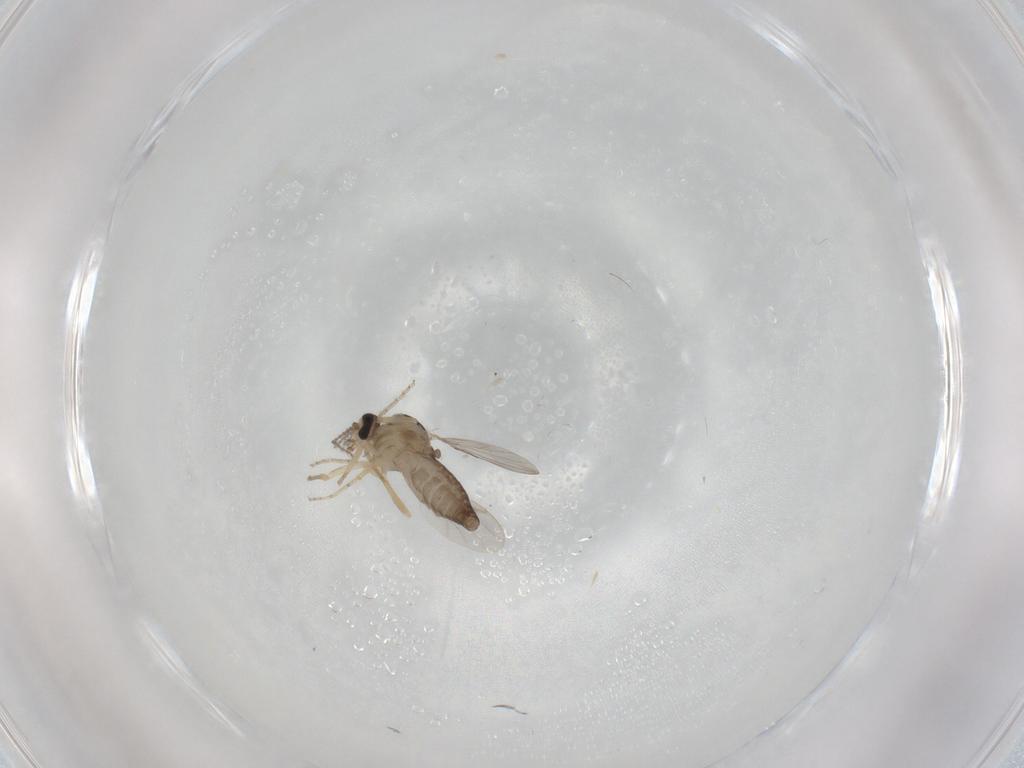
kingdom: Animalia
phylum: Arthropoda
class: Insecta
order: Diptera
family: Ceratopogonidae
